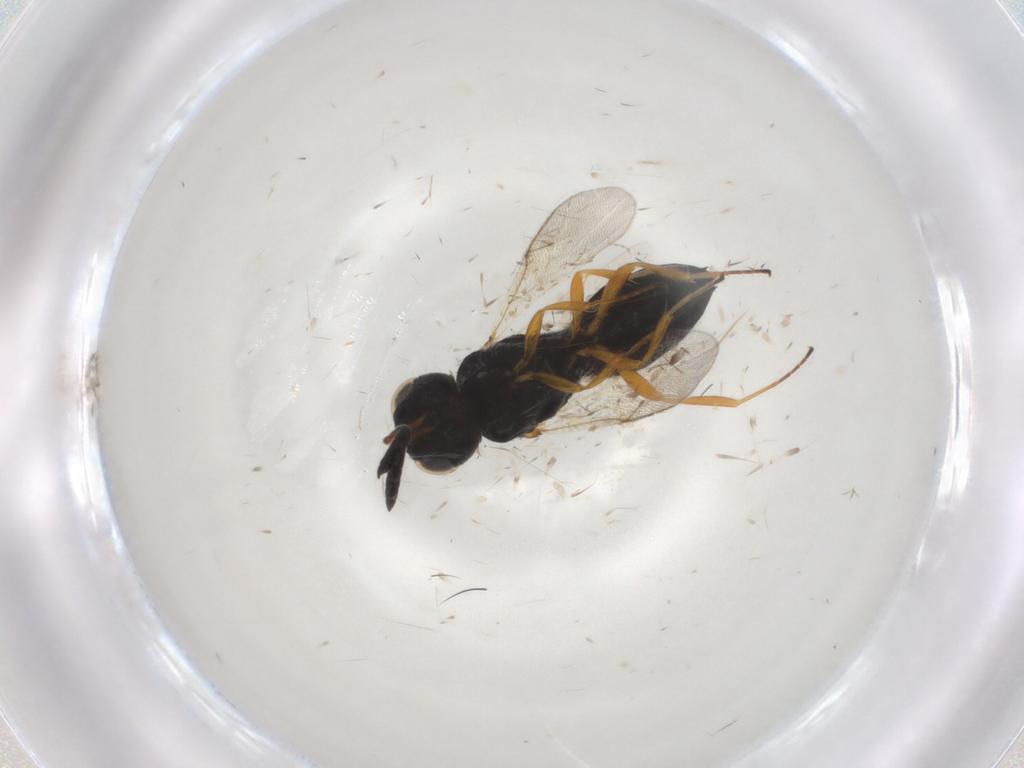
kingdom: Animalia
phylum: Arthropoda
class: Insecta
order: Hymenoptera
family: Scelionidae
